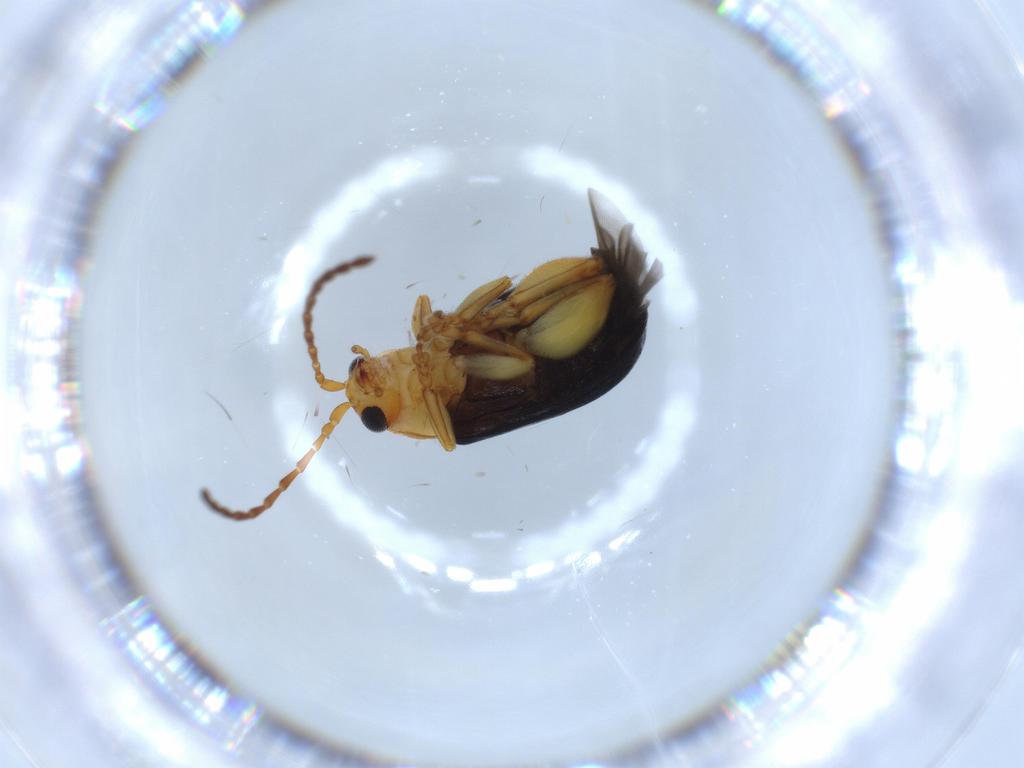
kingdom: Animalia
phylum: Arthropoda
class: Insecta
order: Coleoptera
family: Chrysomelidae
